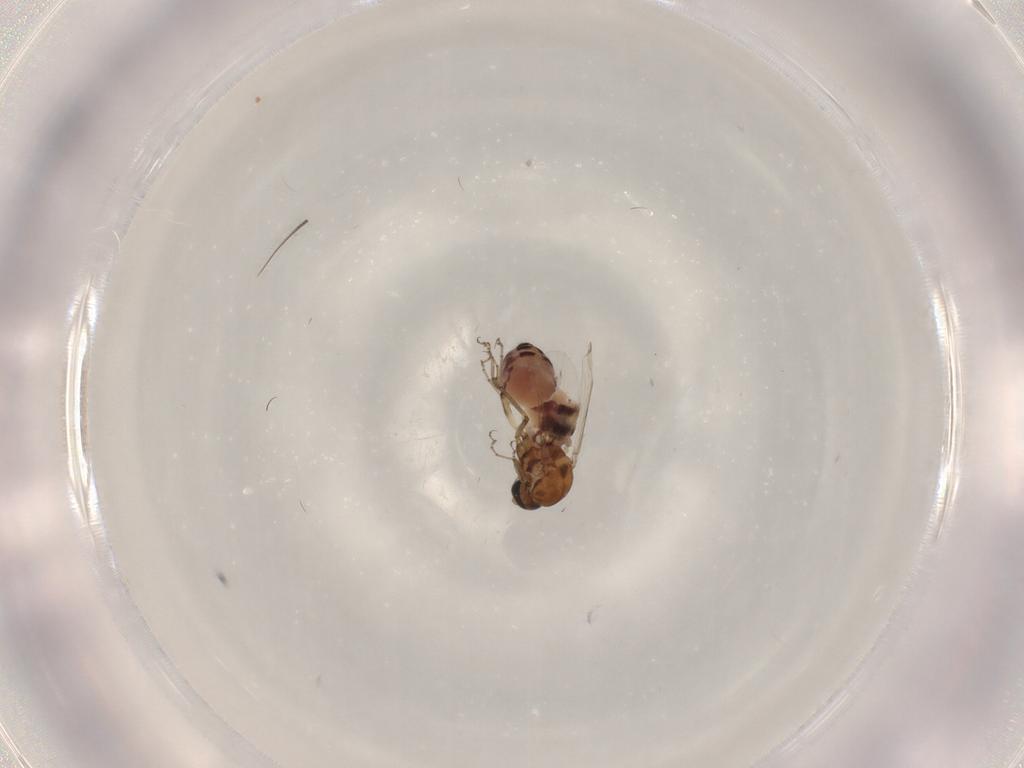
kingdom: Animalia
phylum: Arthropoda
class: Insecta
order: Diptera
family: Ceratopogonidae
